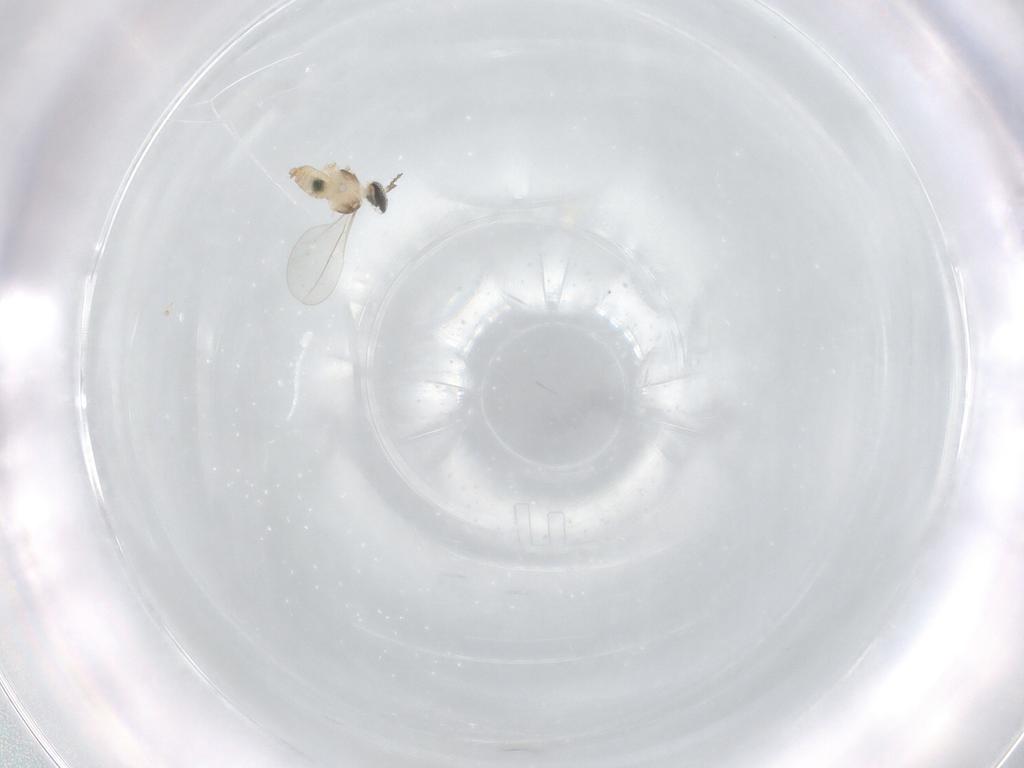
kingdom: Animalia
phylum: Arthropoda
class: Insecta
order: Diptera
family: Cecidomyiidae
